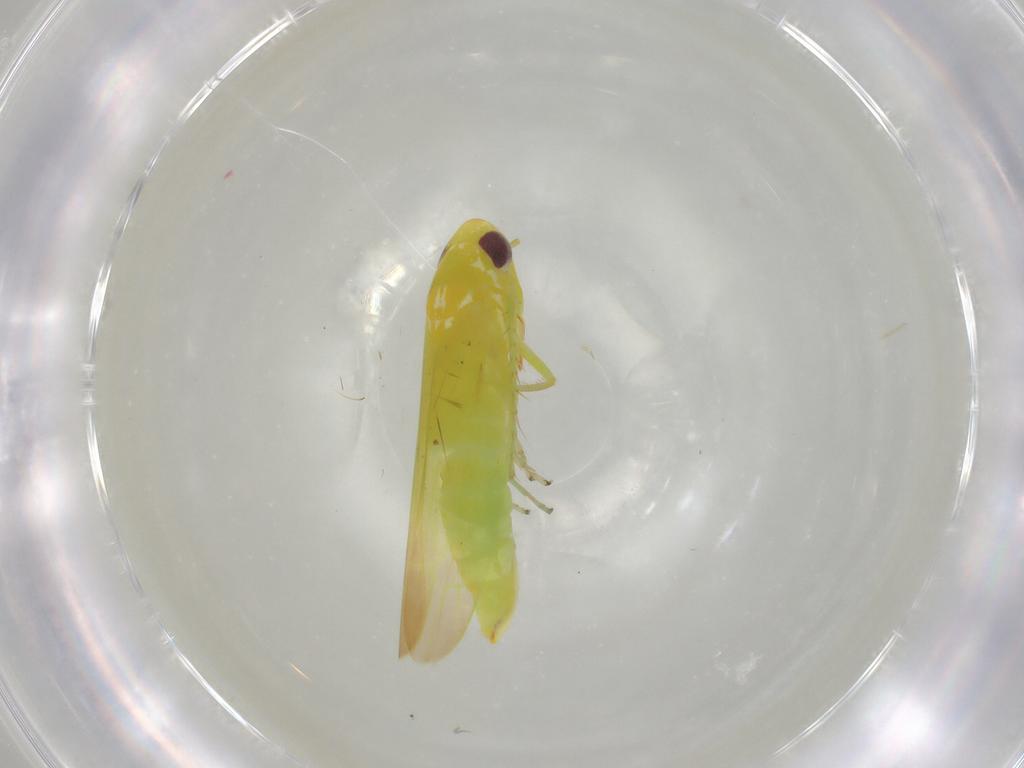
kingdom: Animalia
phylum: Arthropoda
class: Insecta
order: Hemiptera
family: Cicadellidae
